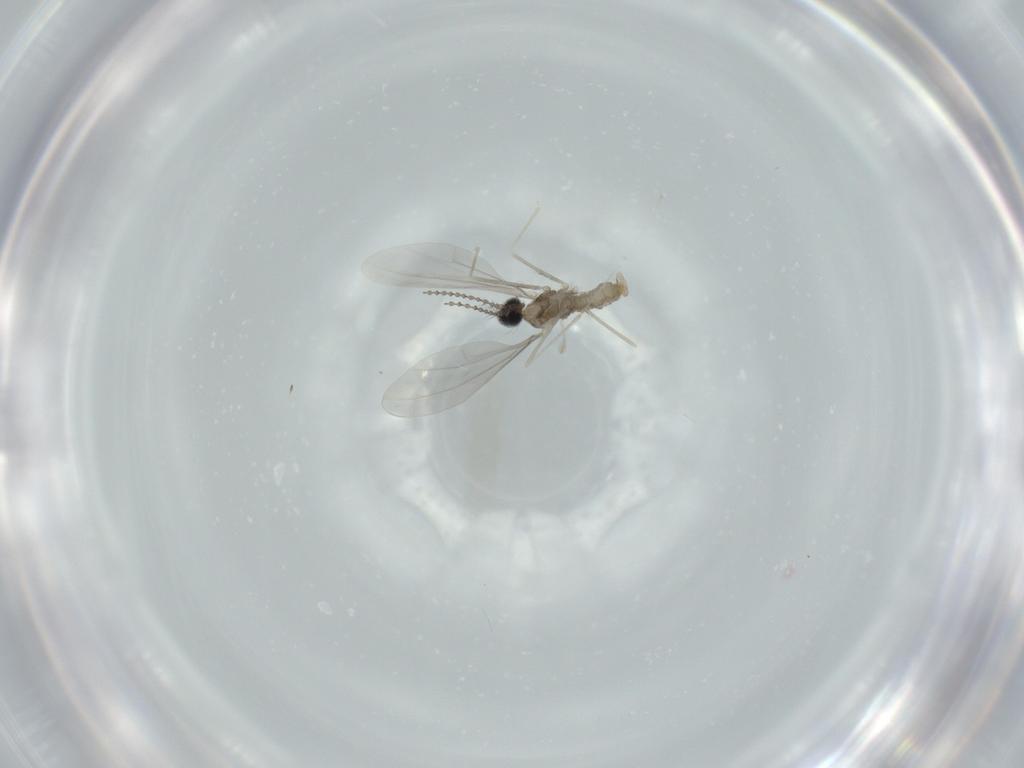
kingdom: Animalia
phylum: Arthropoda
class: Insecta
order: Diptera
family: Cecidomyiidae
